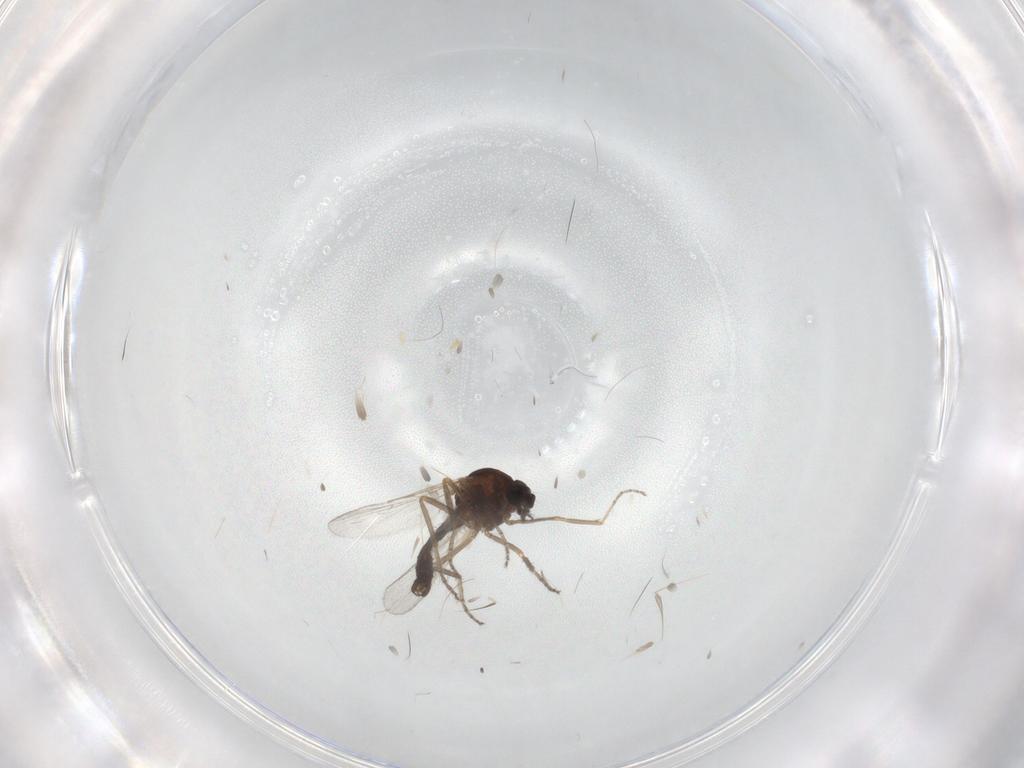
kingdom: Animalia
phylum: Arthropoda
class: Insecta
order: Diptera
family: Ceratopogonidae
